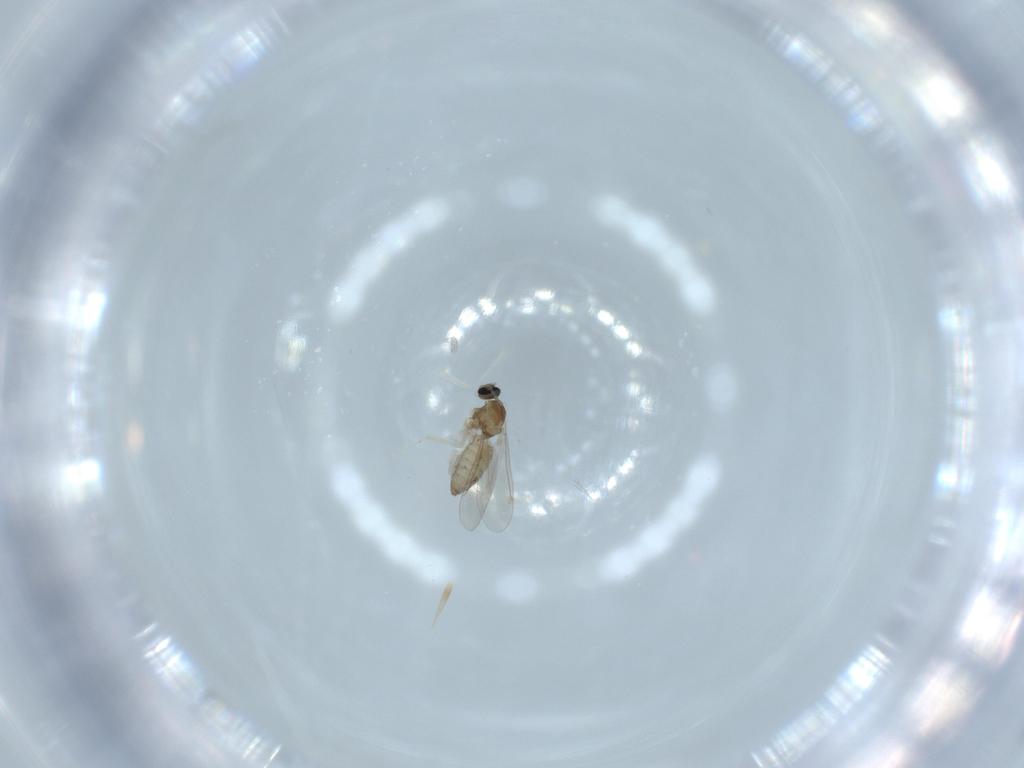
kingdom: Animalia
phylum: Arthropoda
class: Insecta
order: Diptera
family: Cecidomyiidae
